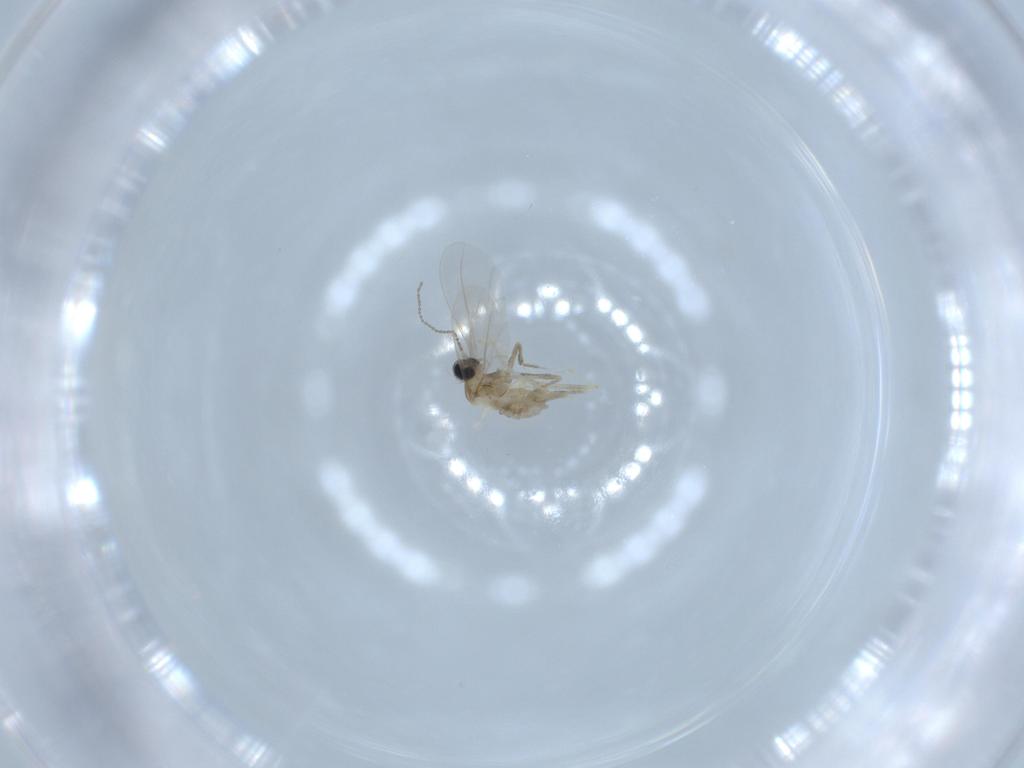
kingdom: Animalia
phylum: Arthropoda
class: Insecta
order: Diptera
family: Cecidomyiidae
